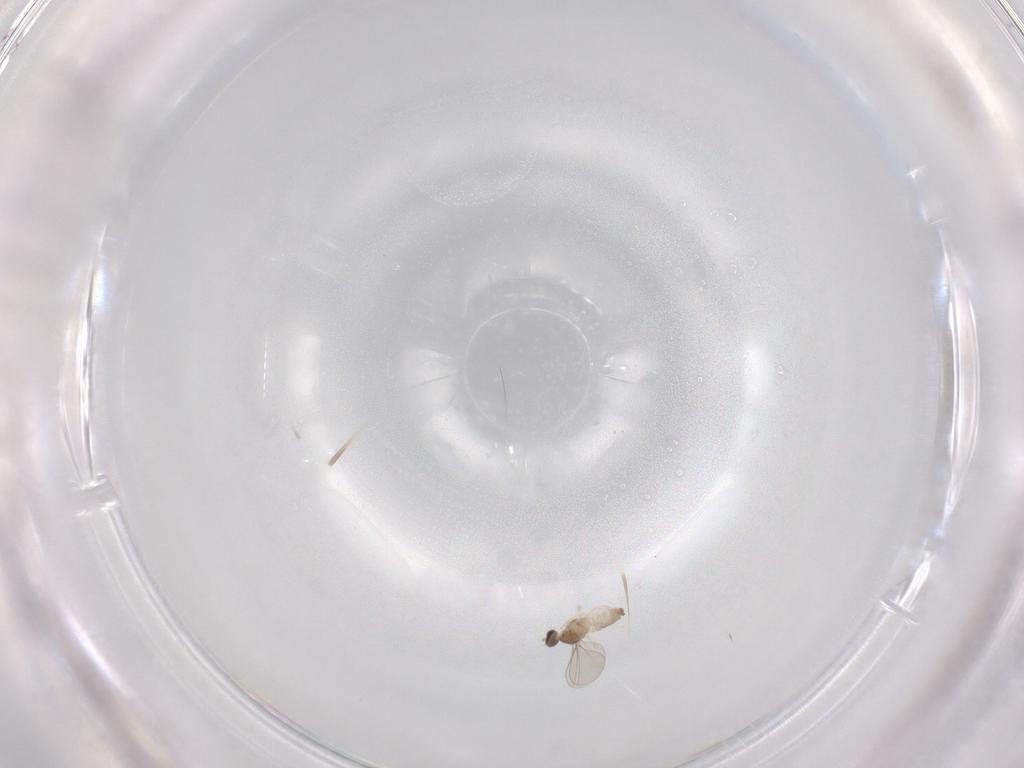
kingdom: Animalia
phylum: Arthropoda
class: Insecta
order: Diptera
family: Cecidomyiidae
